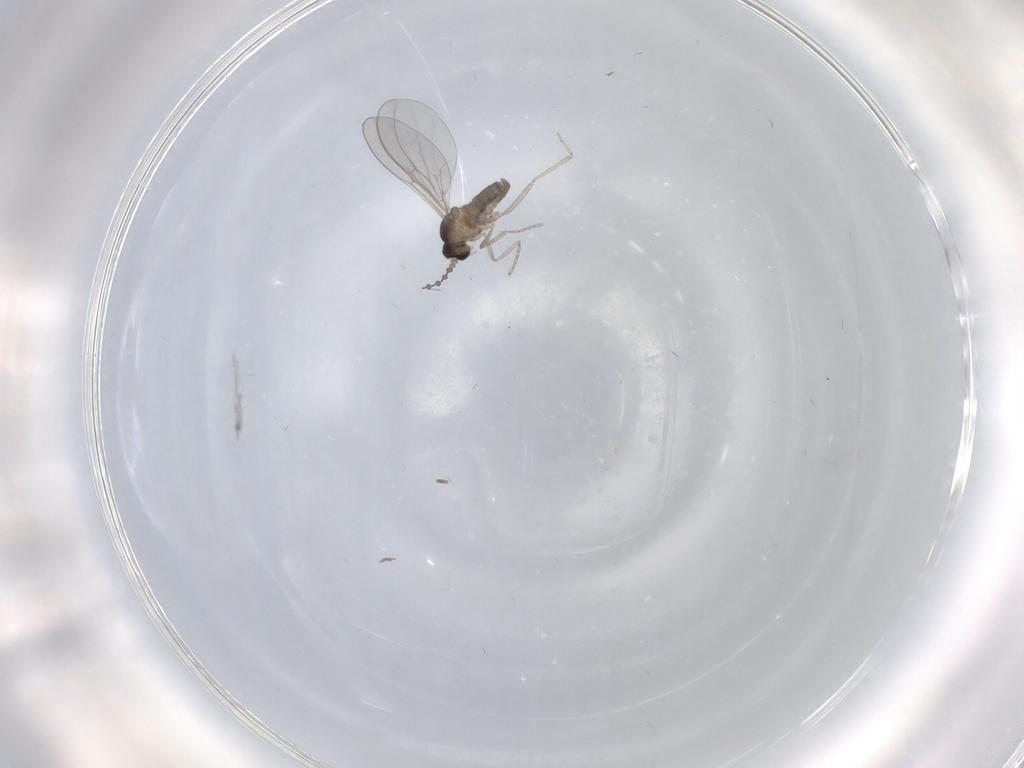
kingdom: Animalia
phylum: Arthropoda
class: Insecta
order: Diptera
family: Cecidomyiidae
